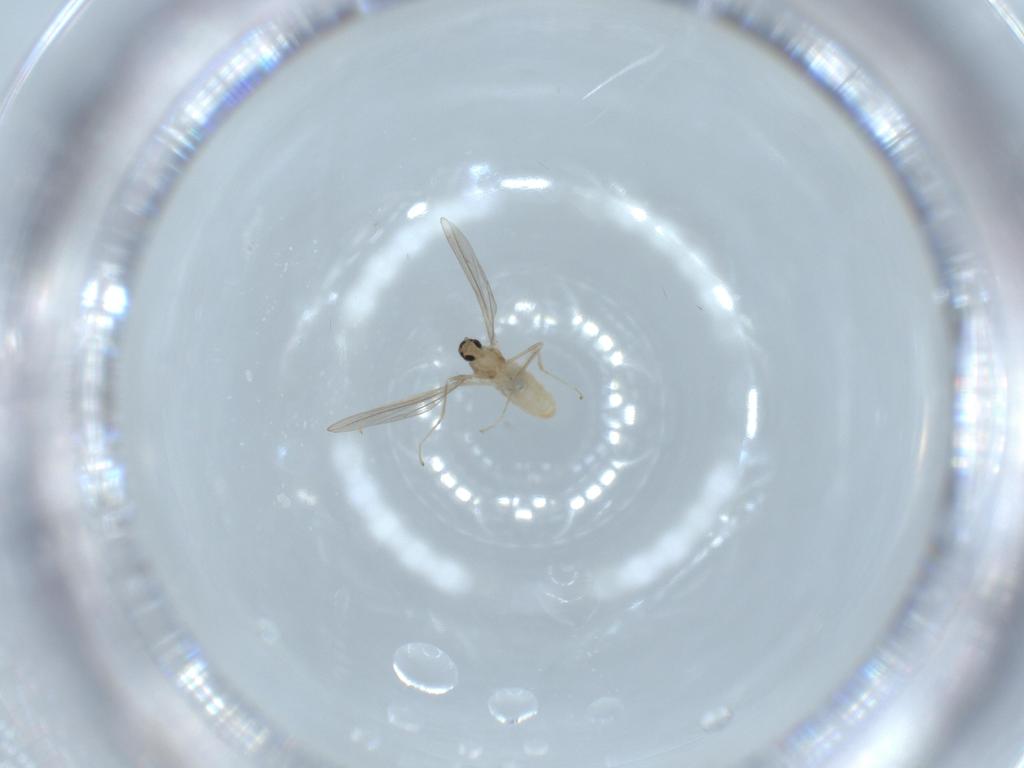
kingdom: Animalia
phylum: Arthropoda
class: Insecta
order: Diptera
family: Cecidomyiidae
